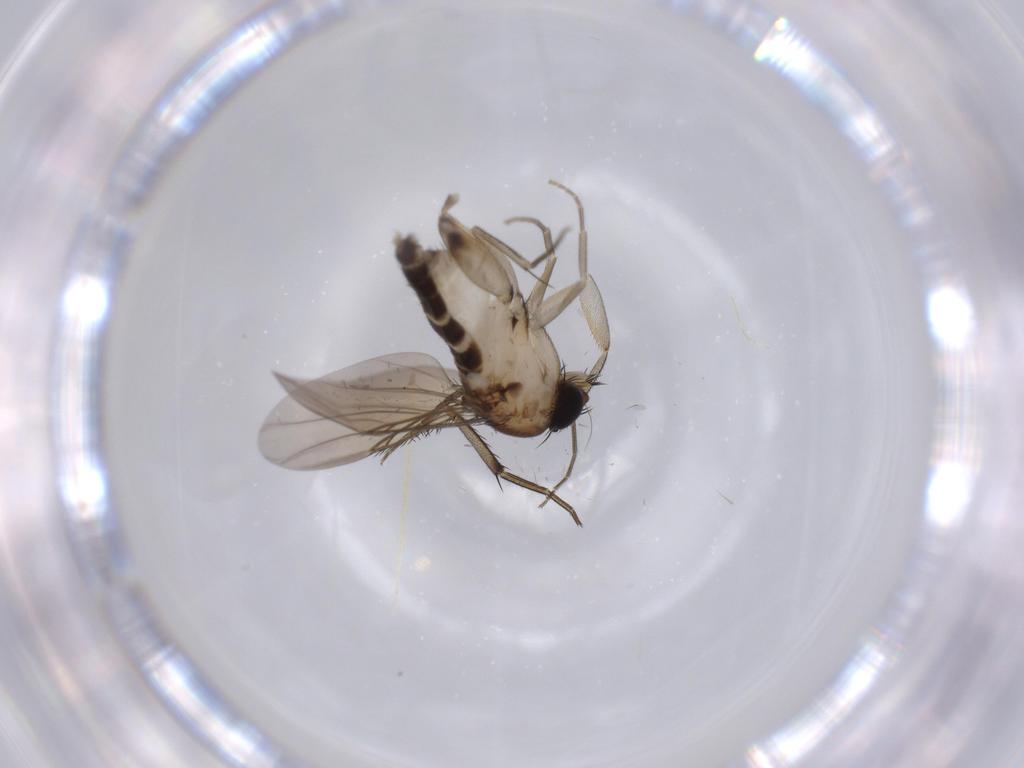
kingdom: Animalia
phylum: Arthropoda
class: Insecta
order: Diptera
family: Phoridae
